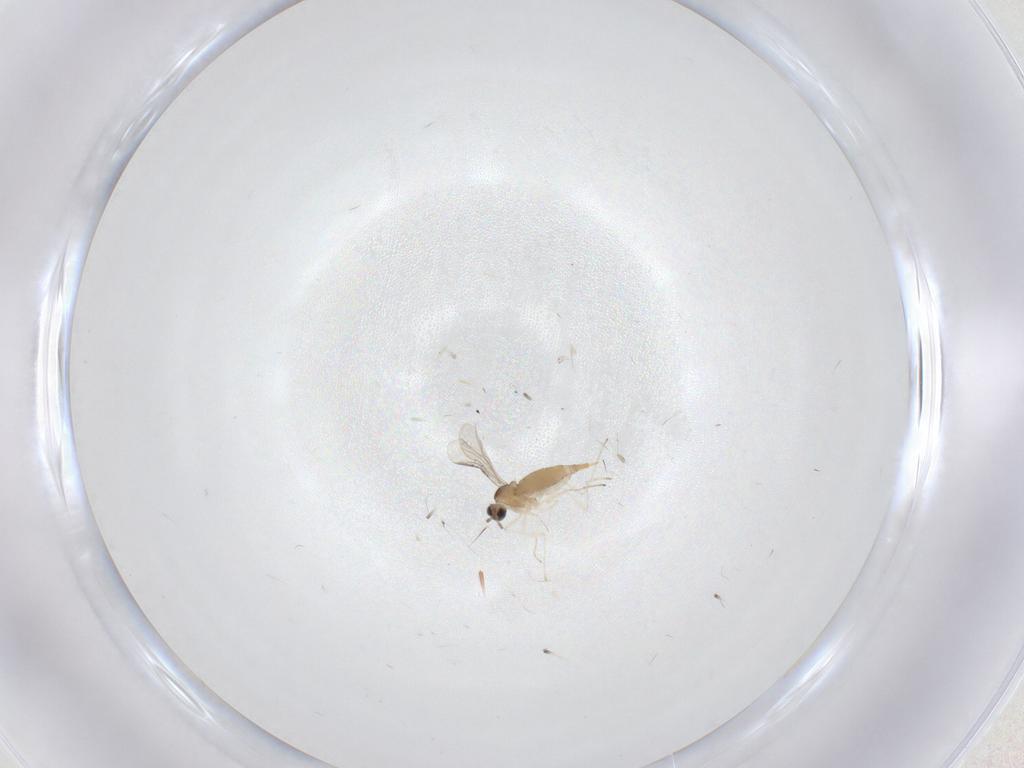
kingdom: Animalia
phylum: Arthropoda
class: Insecta
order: Diptera
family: Cecidomyiidae
